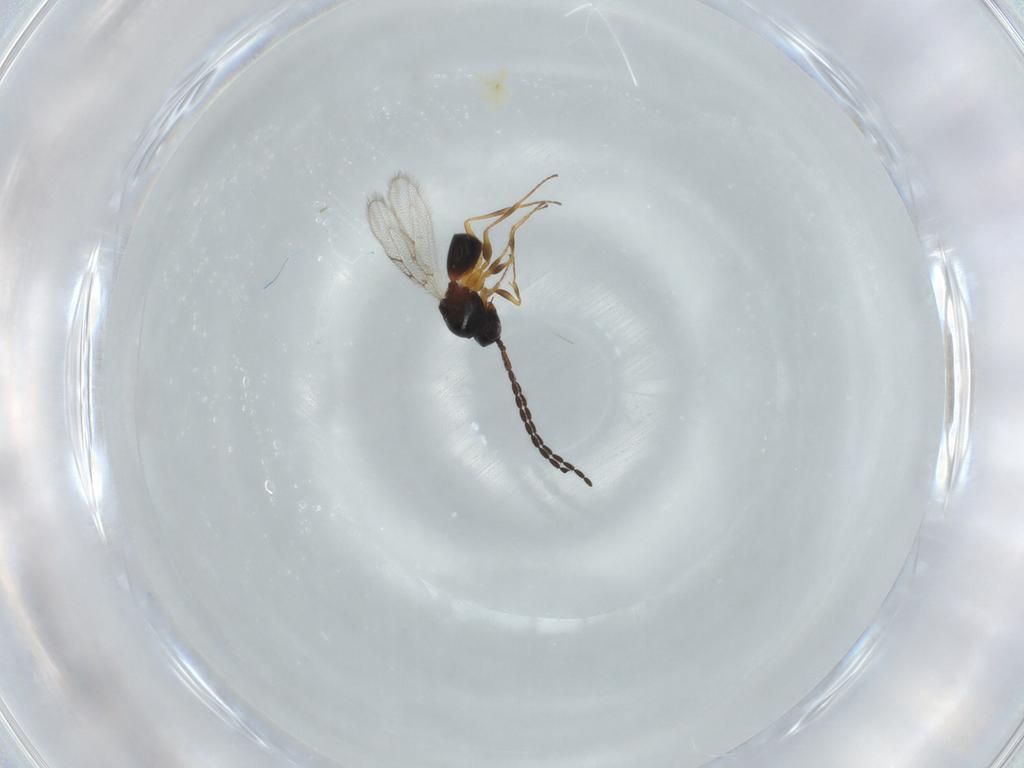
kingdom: Animalia
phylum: Arthropoda
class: Insecta
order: Hymenoptera
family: Figitidae
